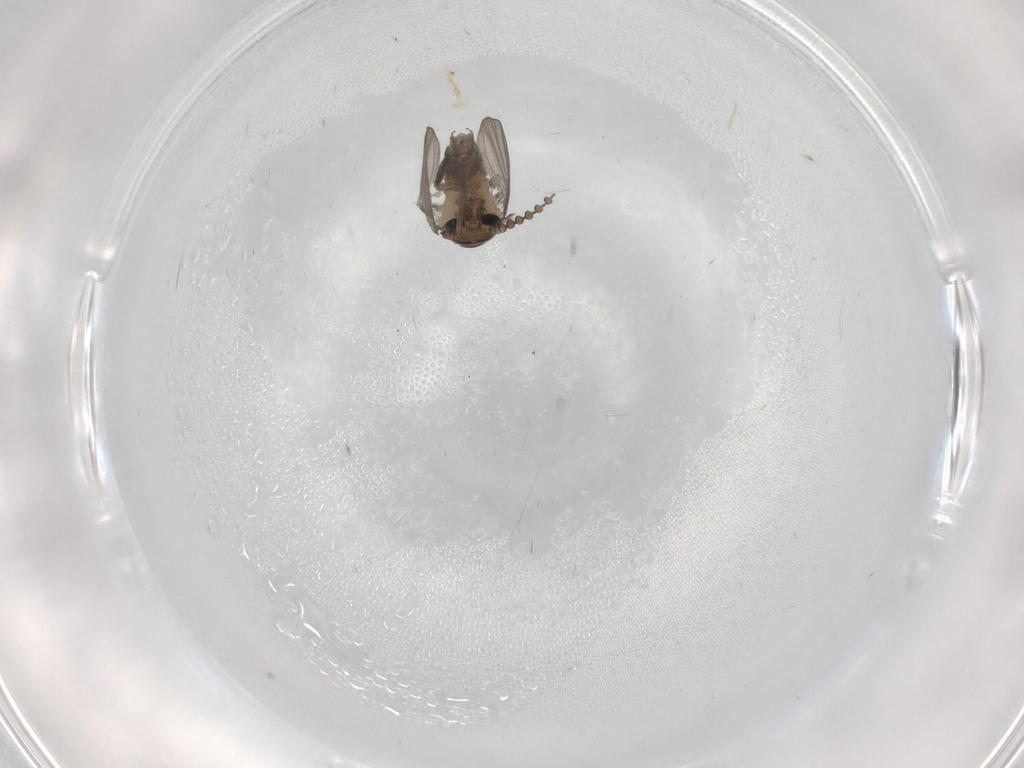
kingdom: Animalia
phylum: Arthropoda
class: Insecta
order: Diptera
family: Psychodidae
